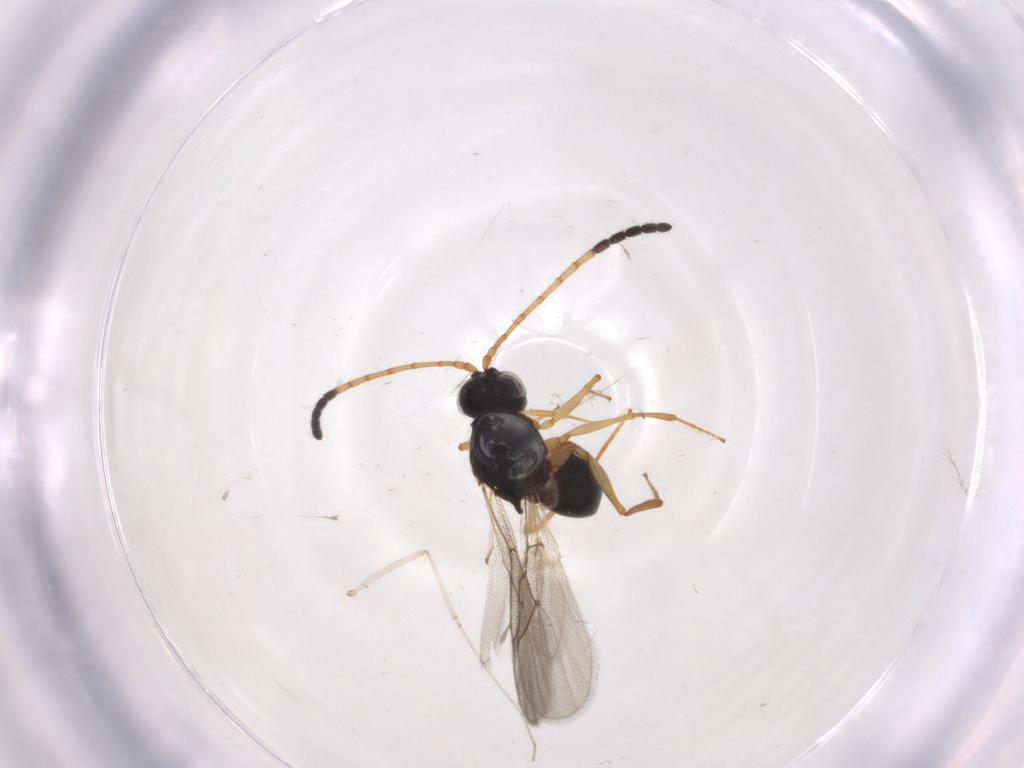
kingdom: Animalia
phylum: Arthropoda
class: Insecta
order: Hymenoptera
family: Figitidae
